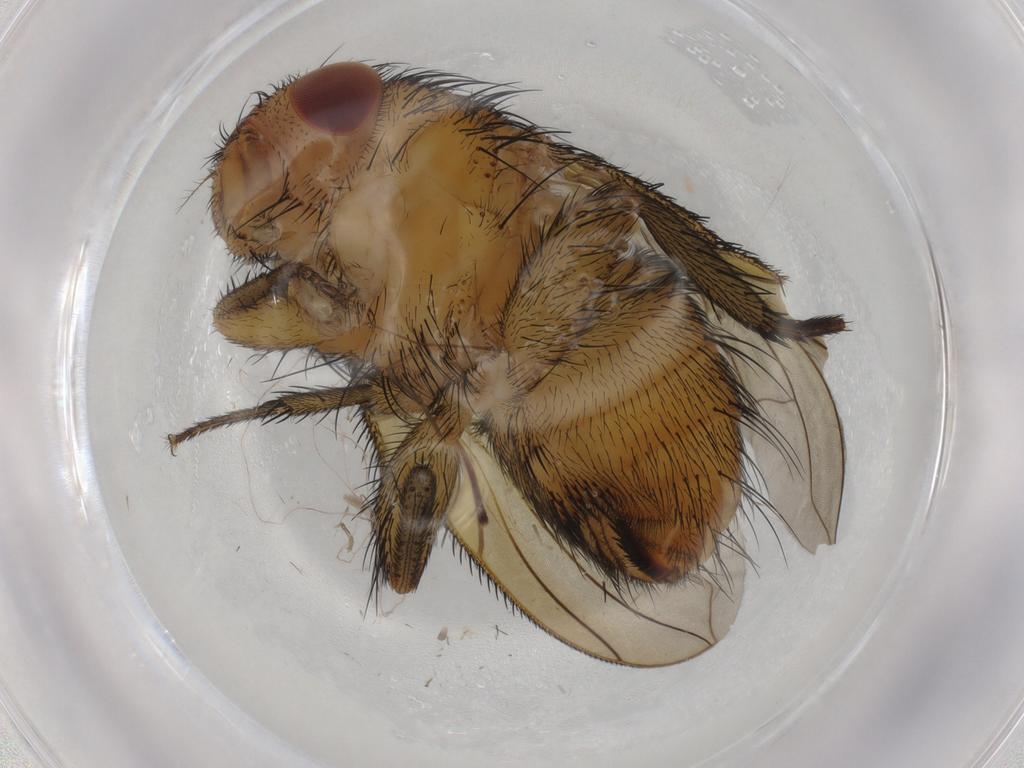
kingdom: Animalia
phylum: Arthropoda
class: Insecta
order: Diptera
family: Calliphoridae
